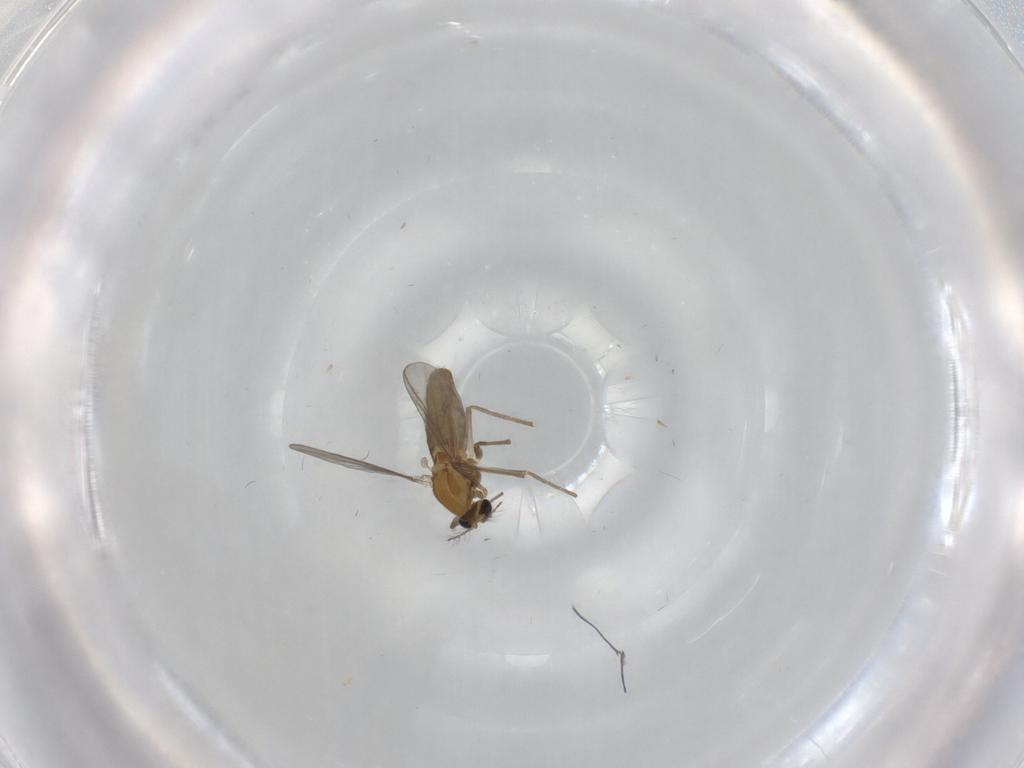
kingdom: Animalia
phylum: Arthropoda
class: Insecta
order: Diptera
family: Chironomidae
